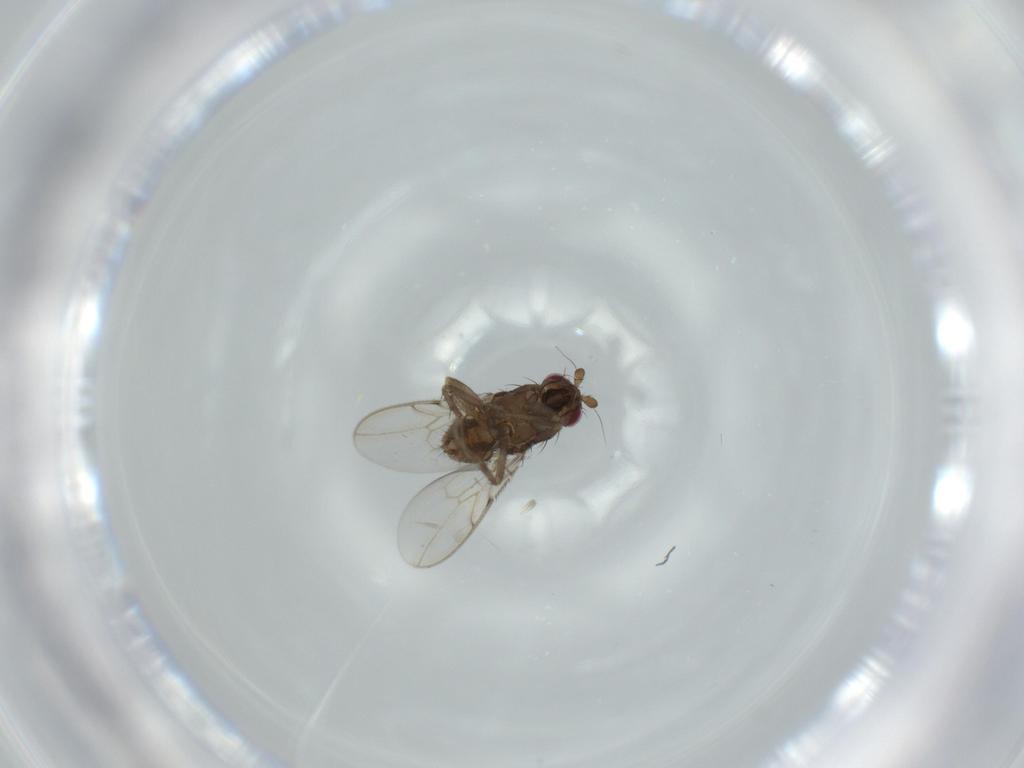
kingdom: Animalia
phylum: Arthropoda
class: Insecta
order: Diptera
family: Sphaeroceridae
